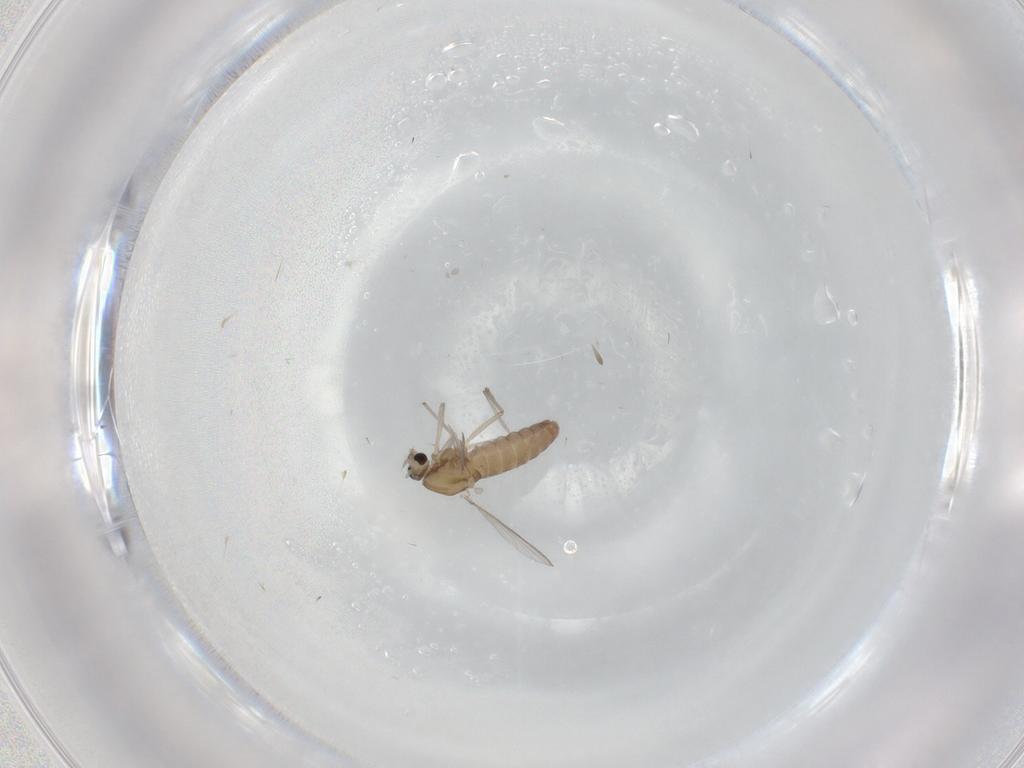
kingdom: Animalia
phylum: Arthropoda
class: Insecta
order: Diptera
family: Chironomidae
